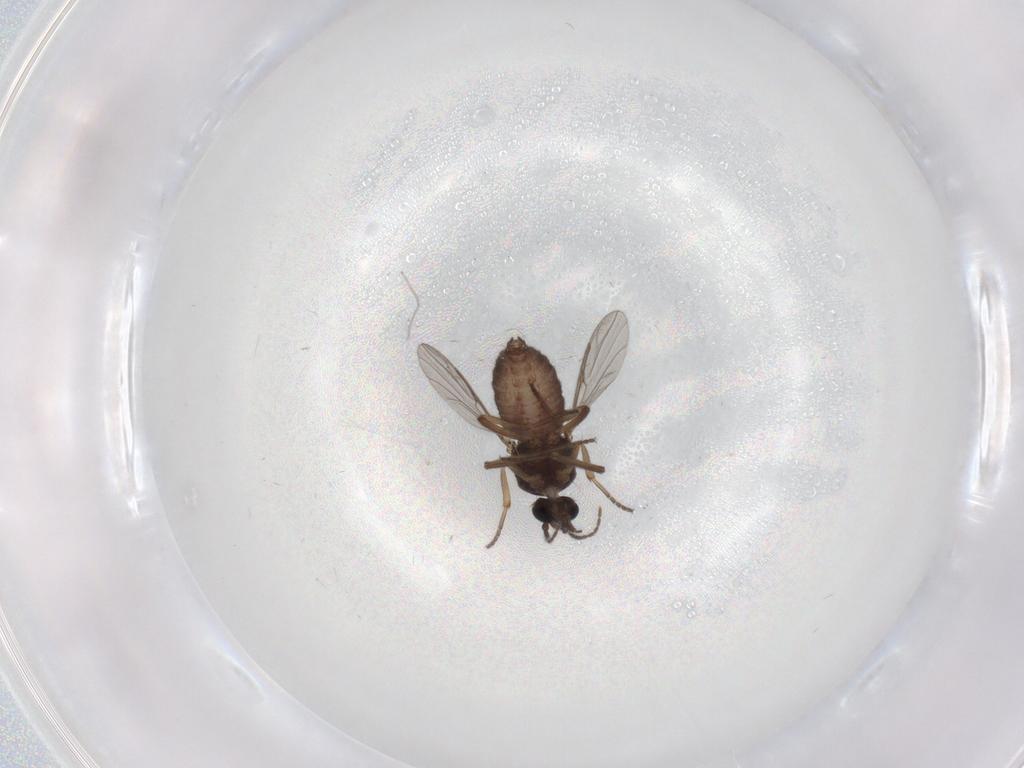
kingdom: Animalia
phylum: Arthropoda
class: Insecta
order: Diptera
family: Ceratopogonidae
